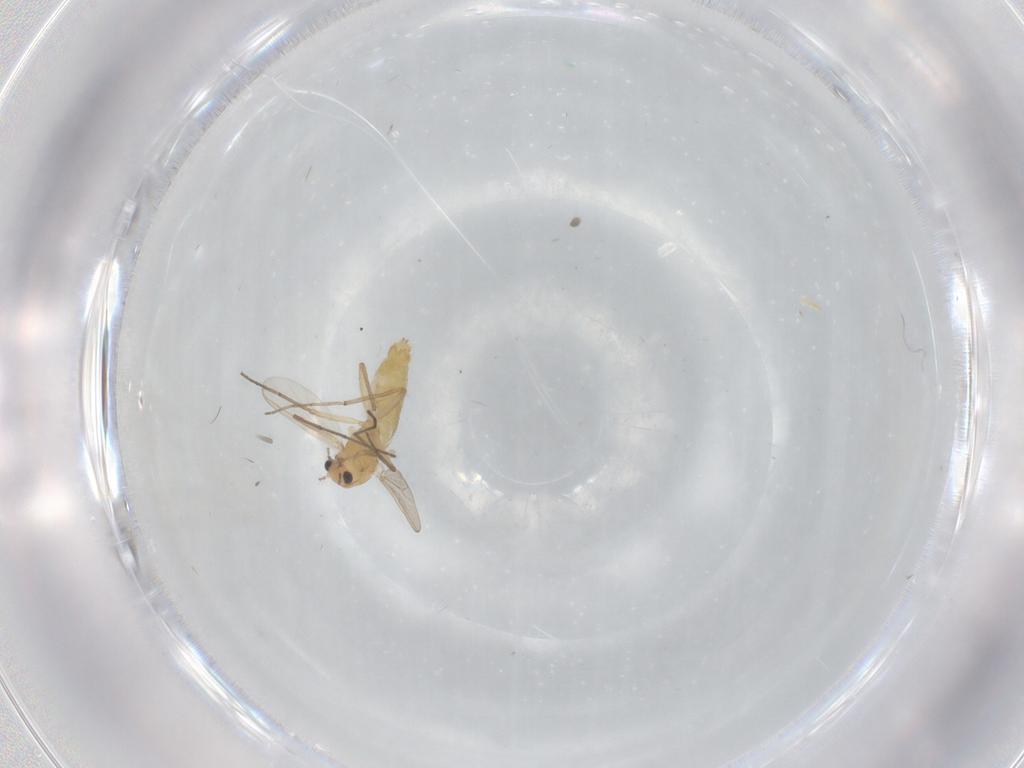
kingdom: Animalia
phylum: Arthropoda
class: Insecta
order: Diptera
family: Chironomidae
